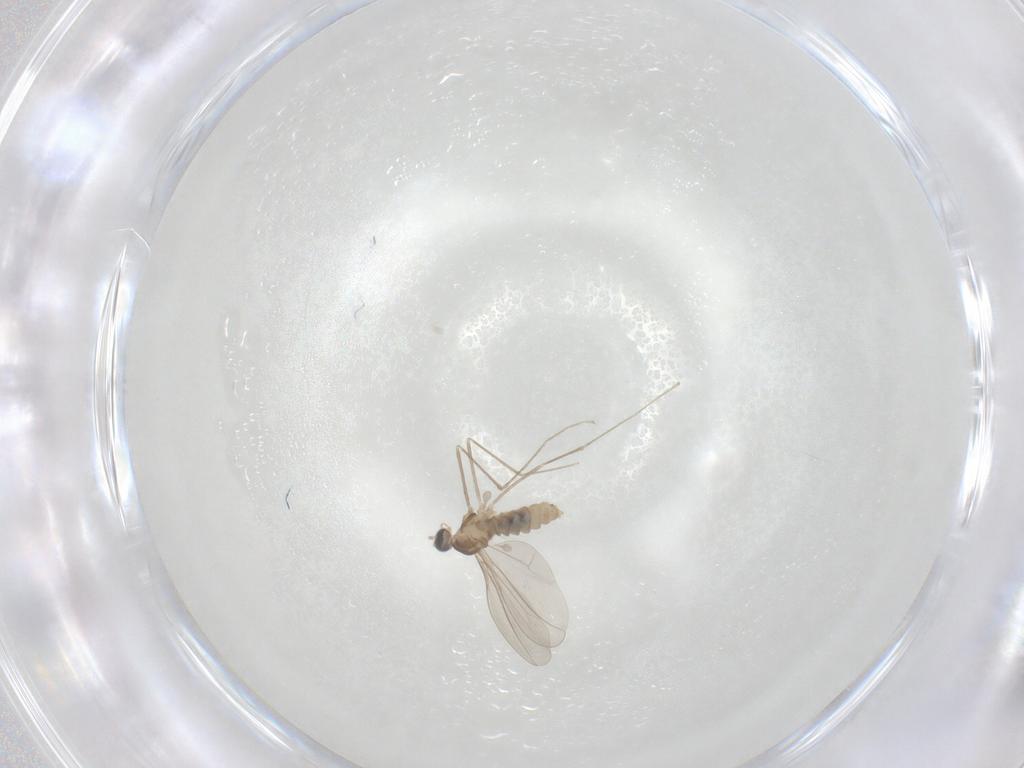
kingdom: Animalia
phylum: Arthropoda
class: Insecta
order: Diptera
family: Cecidomyiidae
